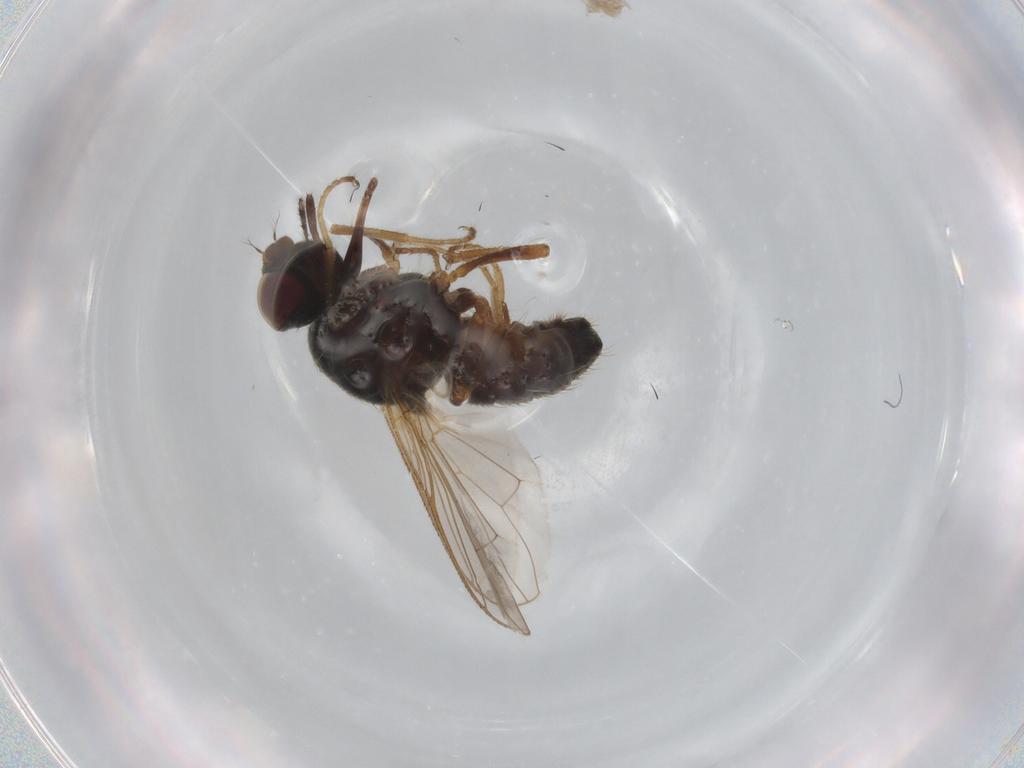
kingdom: Animalia
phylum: Arthropoda
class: Insecta
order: Diptera
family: Muscidae
